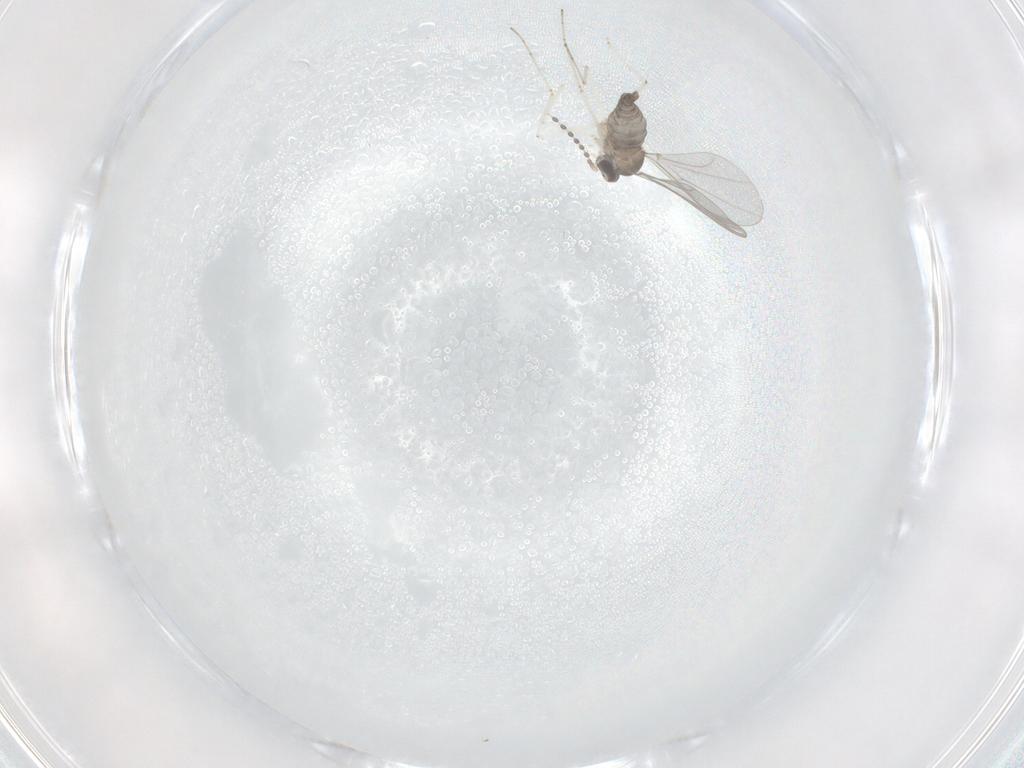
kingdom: Animalia
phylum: Arthropoda
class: Insecta
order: Diptera
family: Cecidomyiidae
